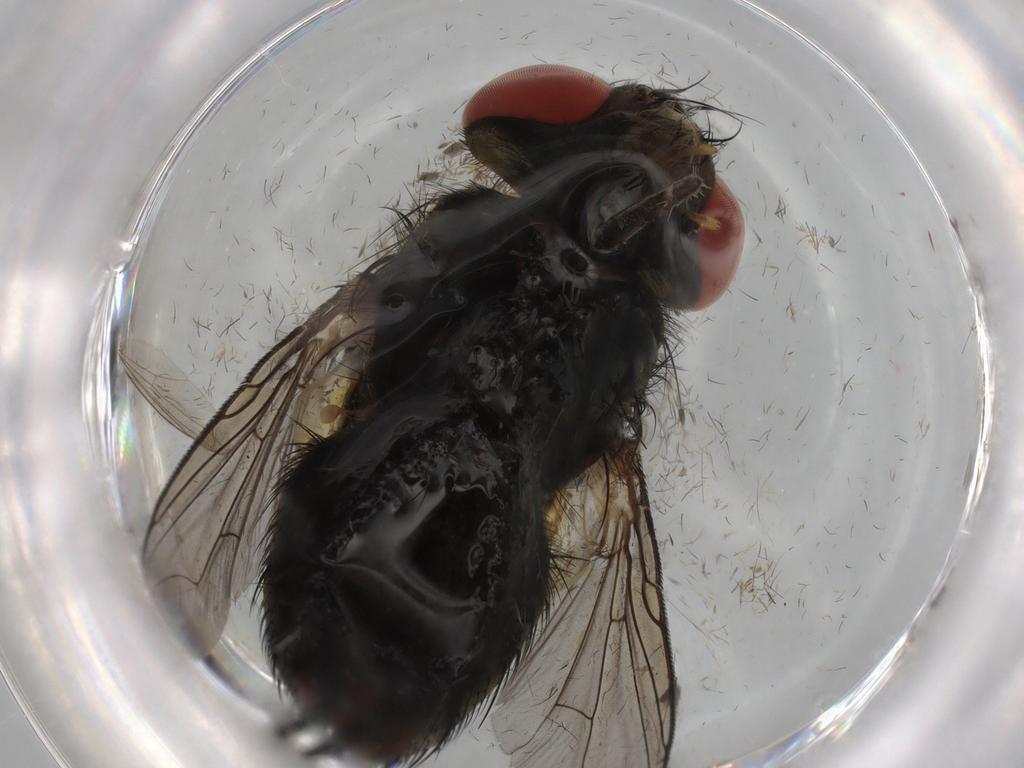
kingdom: Animalia
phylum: Arthropoda
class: Insecta
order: Diptera
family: Sarcophagidae
